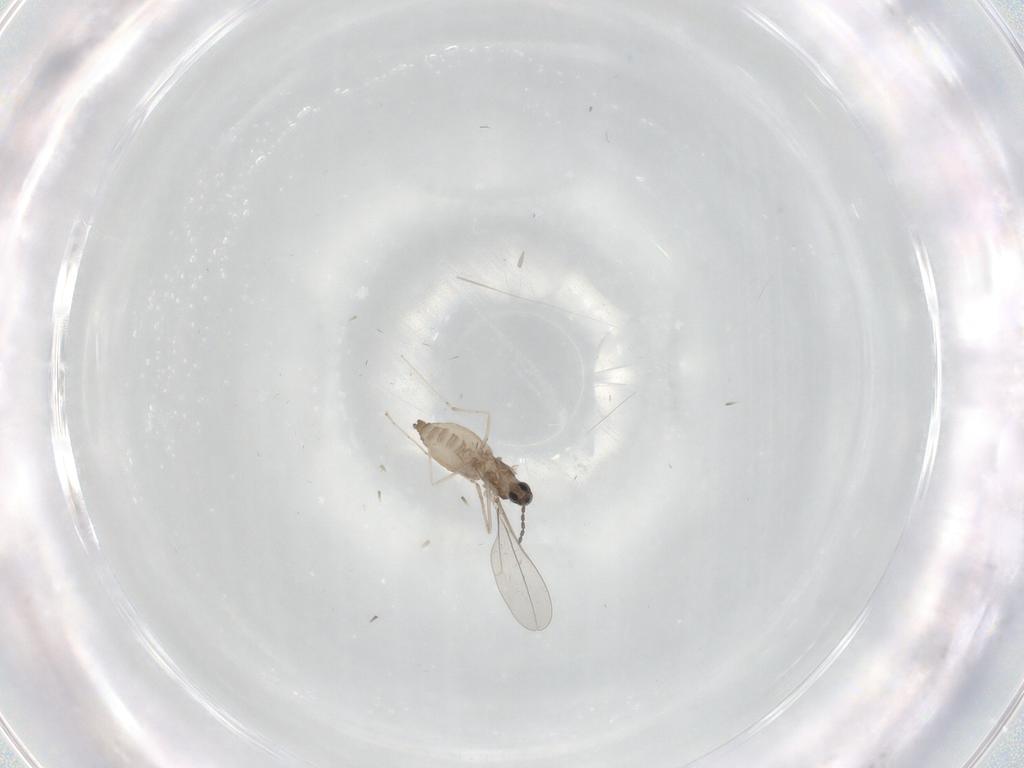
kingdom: Animalia
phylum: Arthropoda
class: Insecta
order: Diptera
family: Cecidomyiidae
